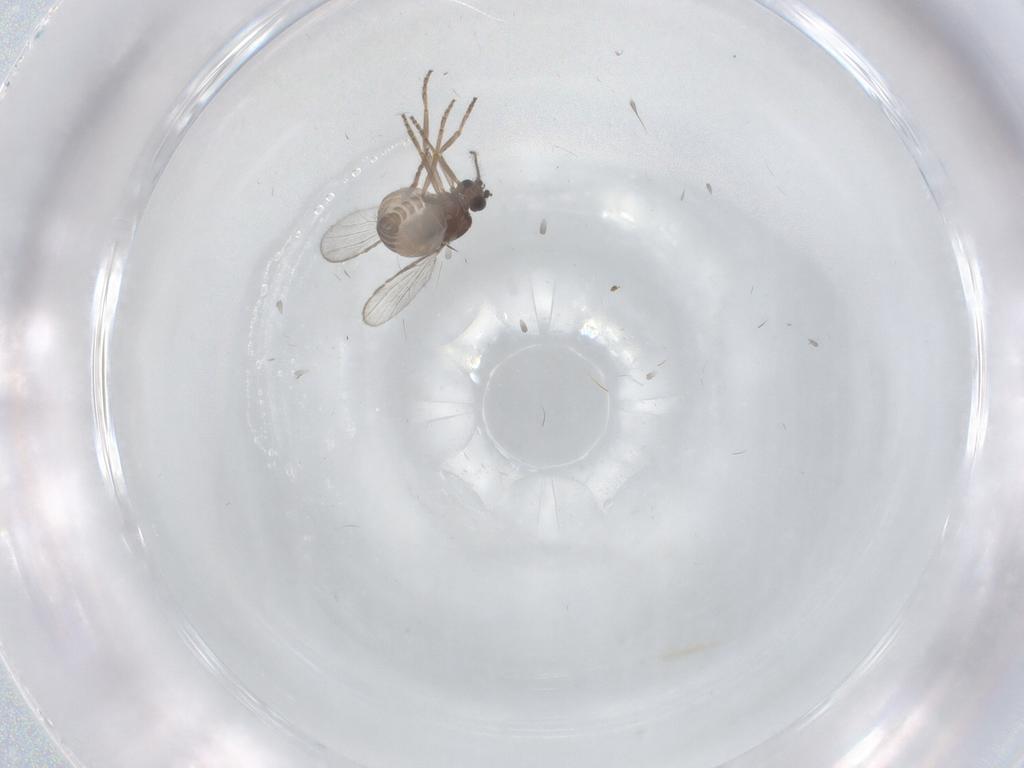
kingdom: Animalia
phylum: Arthropoda
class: Insecta
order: Diptera
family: Ceratopogonidae
